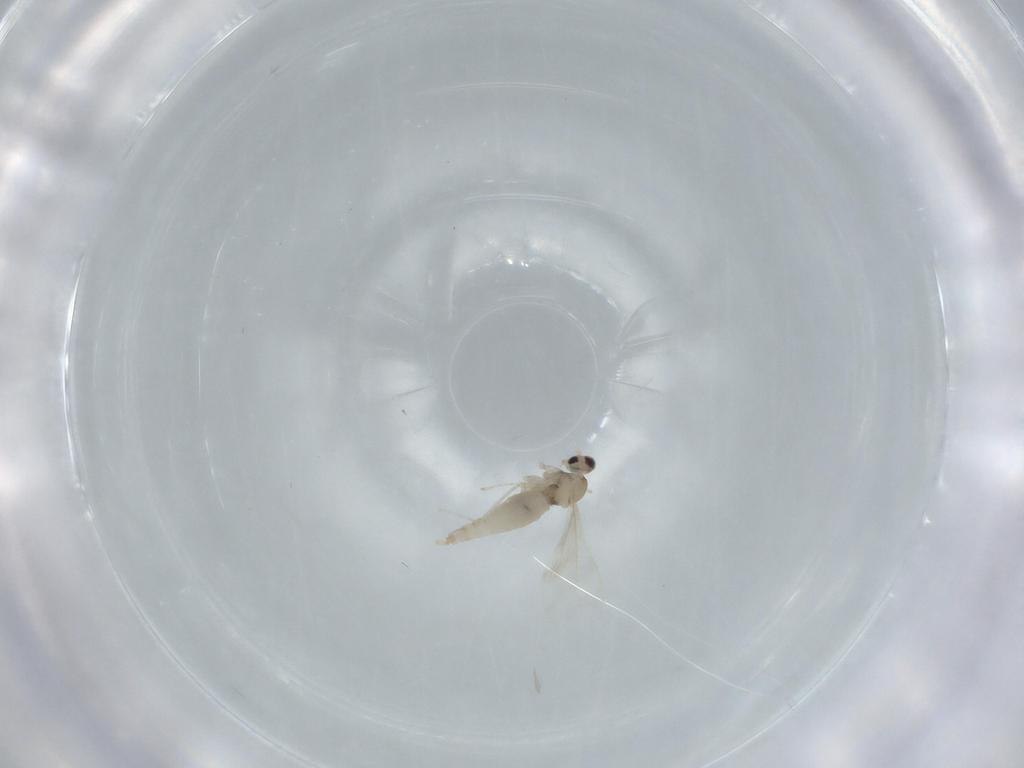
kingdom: Animalia
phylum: Arthropoda
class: Insecta
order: Diptera
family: Cecidomyiidae
